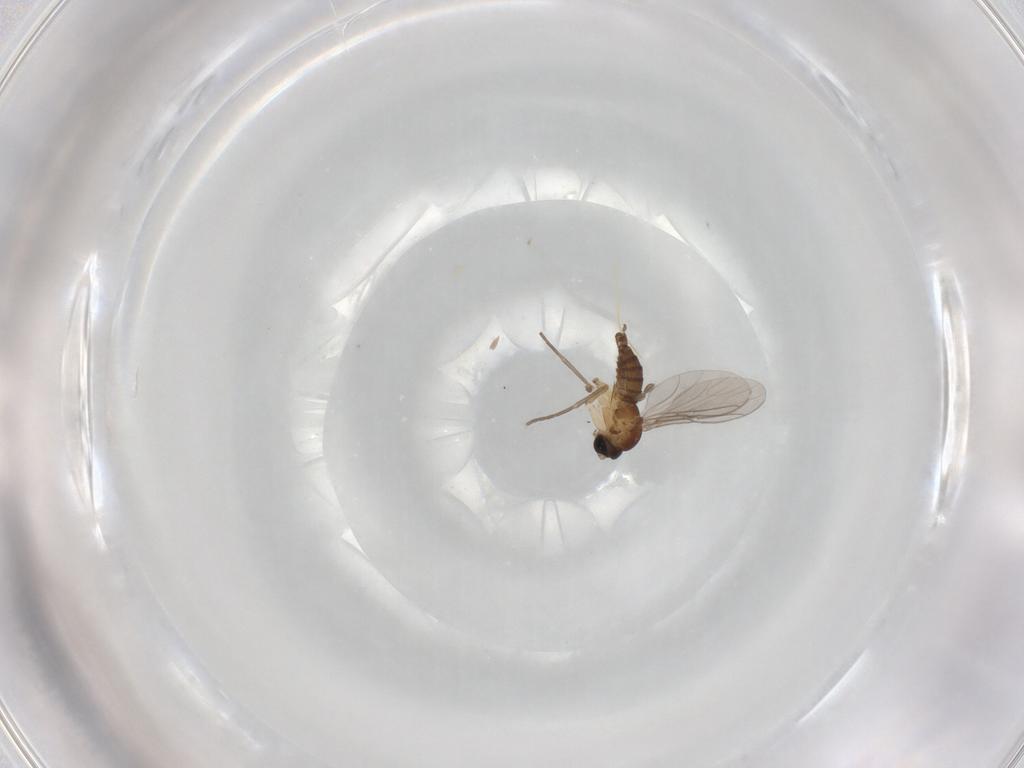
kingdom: Animalia
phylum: Arthropoda
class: Insecta
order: Diptera
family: Sciaridae
